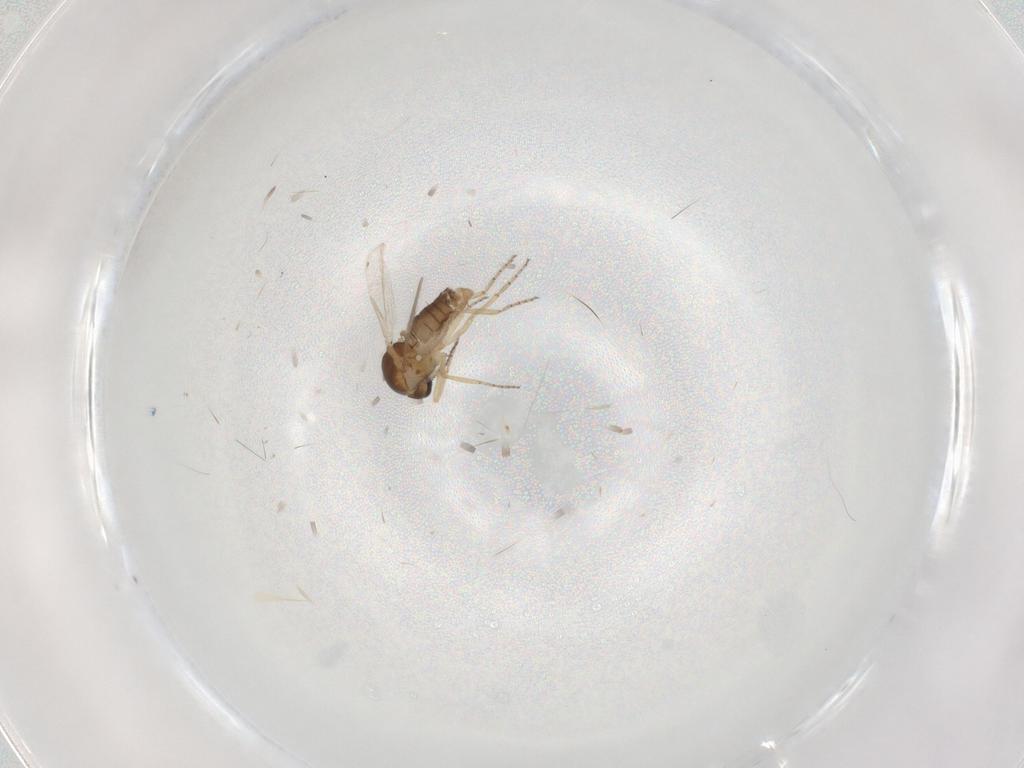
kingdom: Animalia
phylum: Arthropoda
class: Insecta
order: Diptera
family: Ceratopogonidae
